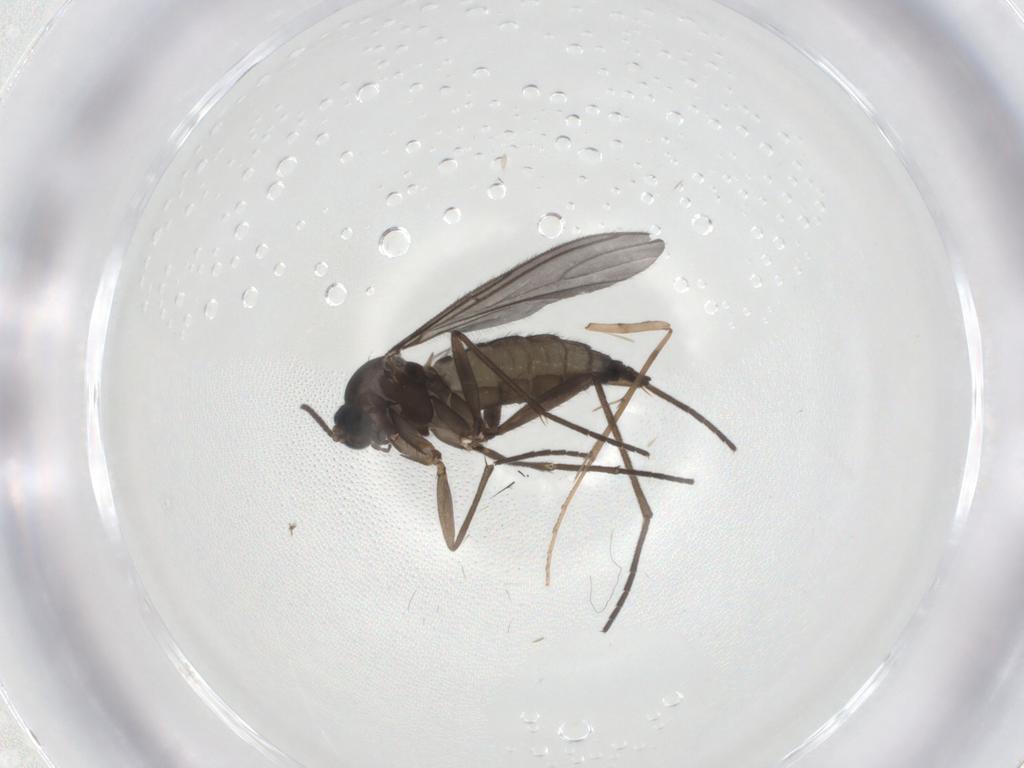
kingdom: Animalia
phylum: Arthropoda
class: Insecta
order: Diptera
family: Sciaridae
